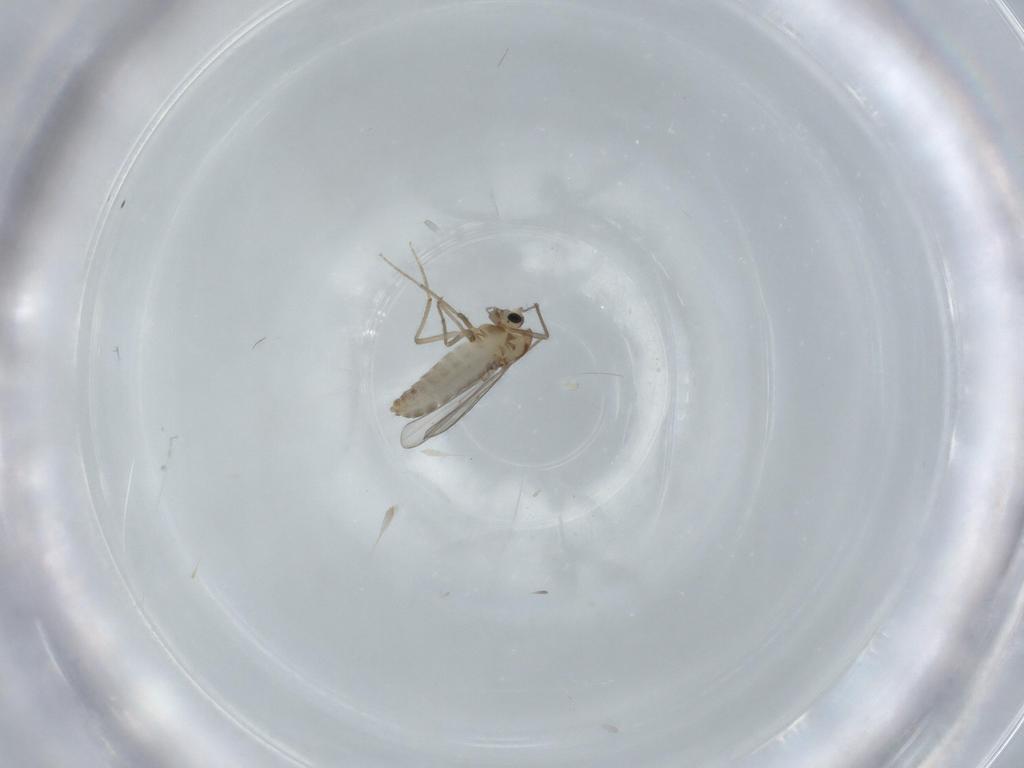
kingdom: Animalia
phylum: Arthropoda
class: Insecta
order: Diptera
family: Chironomidae
